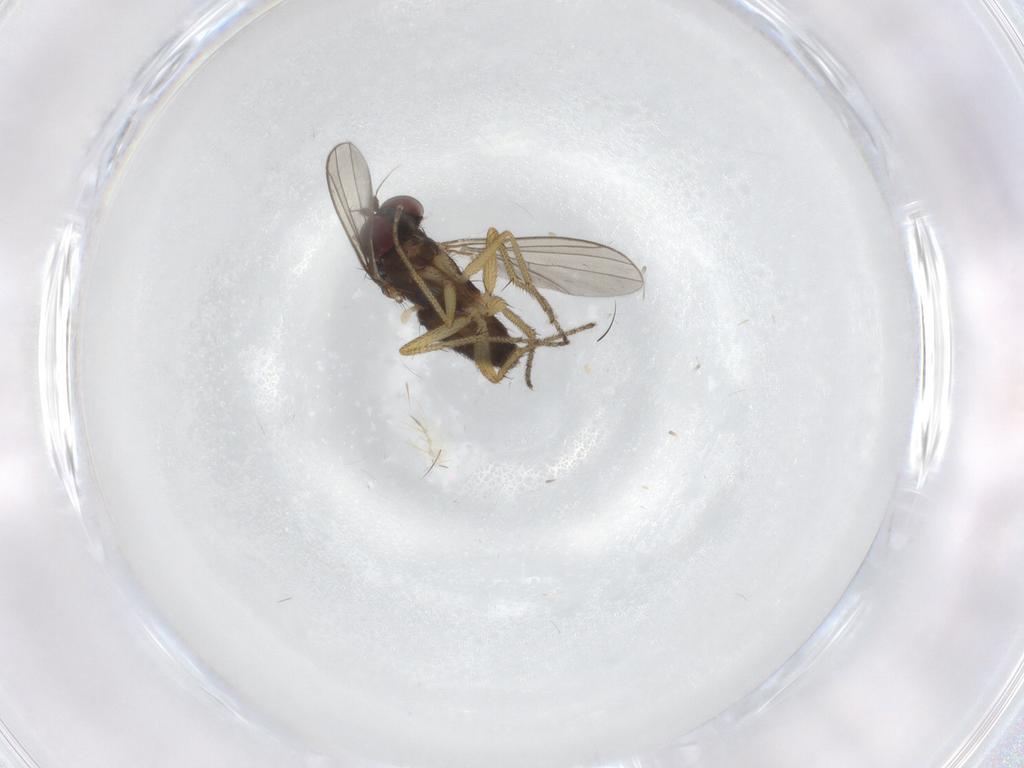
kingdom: Animalia
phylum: Arthropoda
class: Insecta
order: Diptera
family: Dolichopodidae
